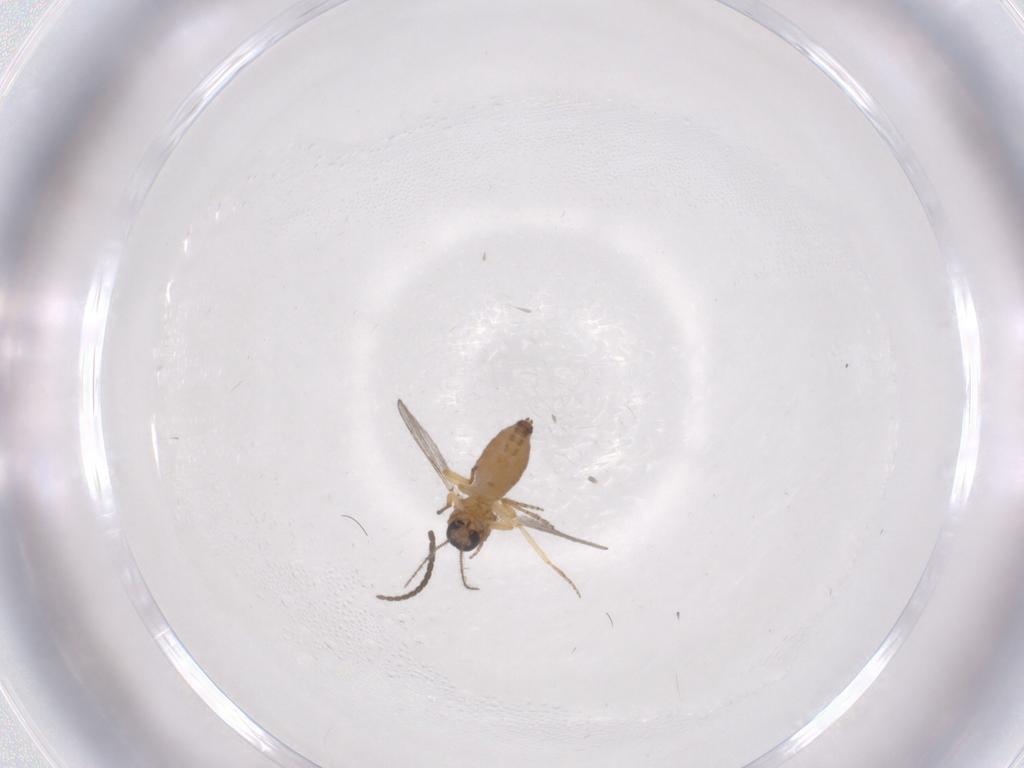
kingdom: Animalia
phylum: Arthropoda
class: Insecta
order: Diptera
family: Ceratopogonidae
